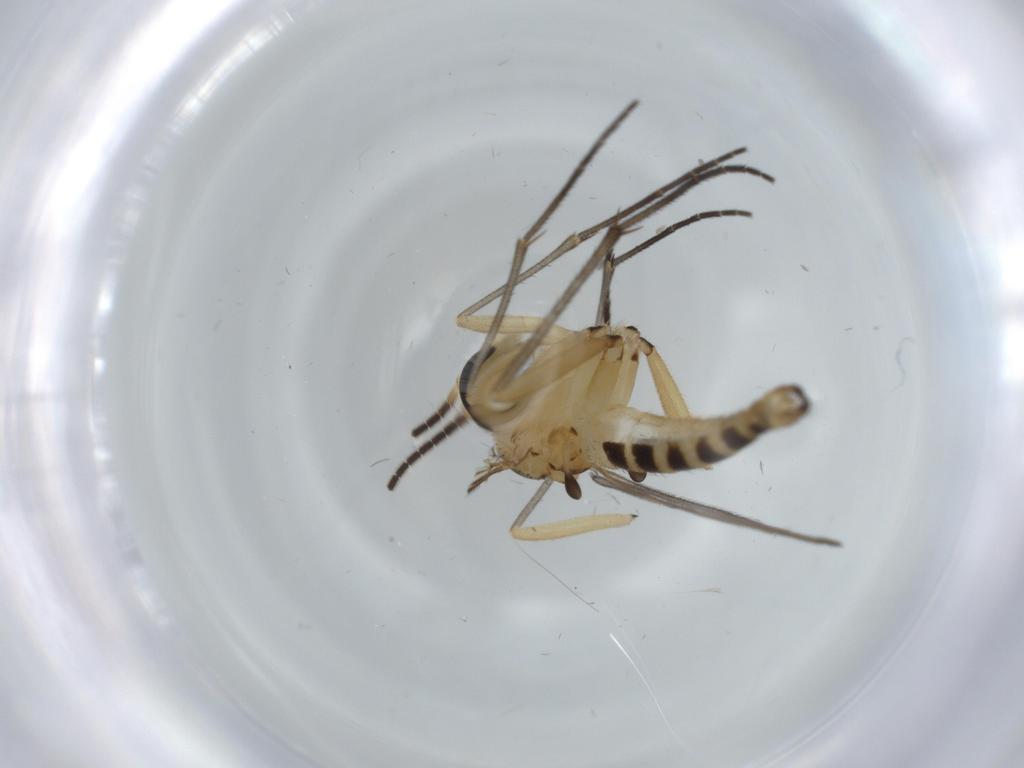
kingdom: Animalia
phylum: Arthropoda
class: Insecta
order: Diptera
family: Sciaridae
